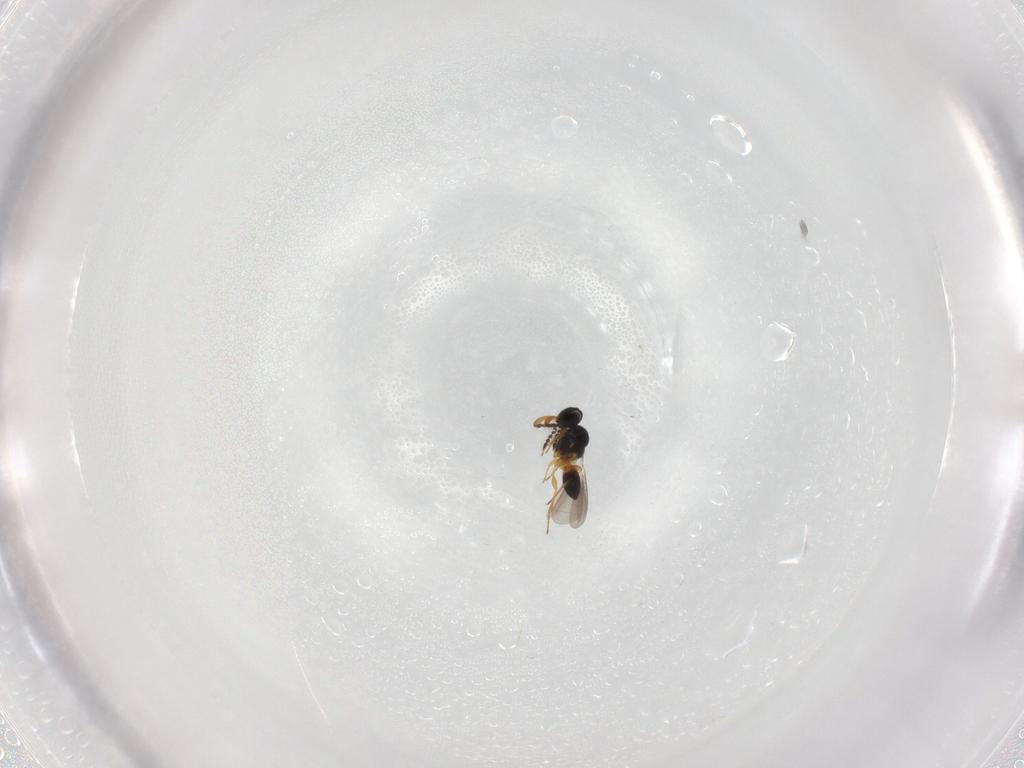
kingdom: Animalia
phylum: Arthropoda
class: Insecta
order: Hymenoptera
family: Platygastridae
